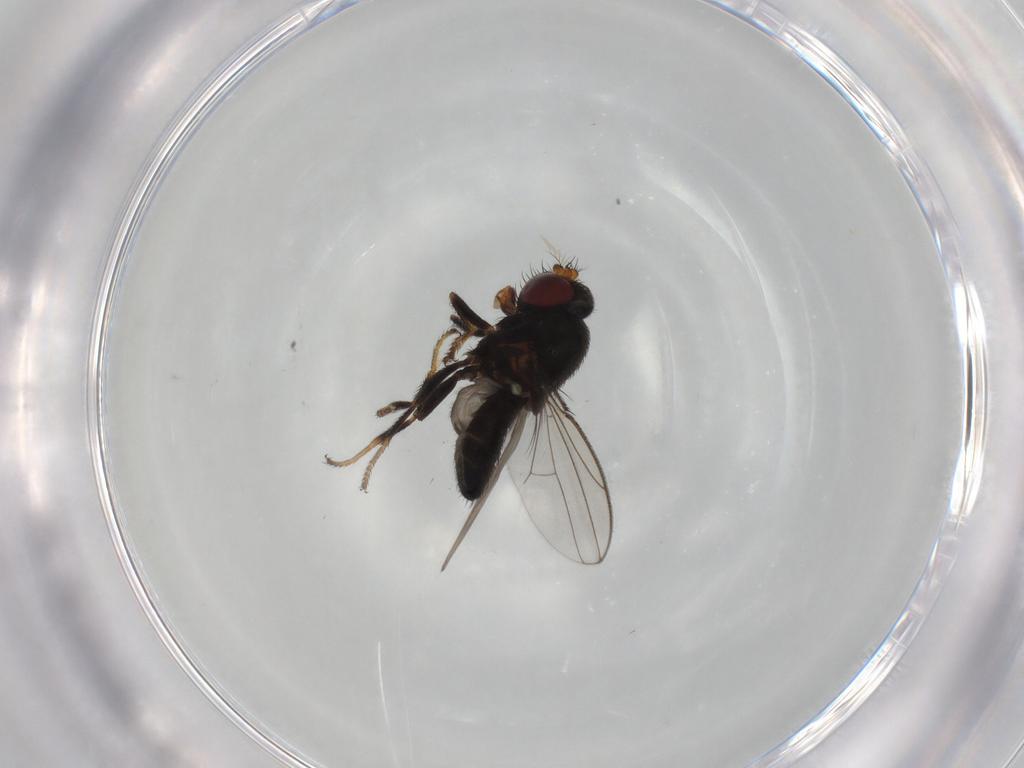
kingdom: Animalia
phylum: Arthropoda
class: Insecta
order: Diptera
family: Ephydridae
